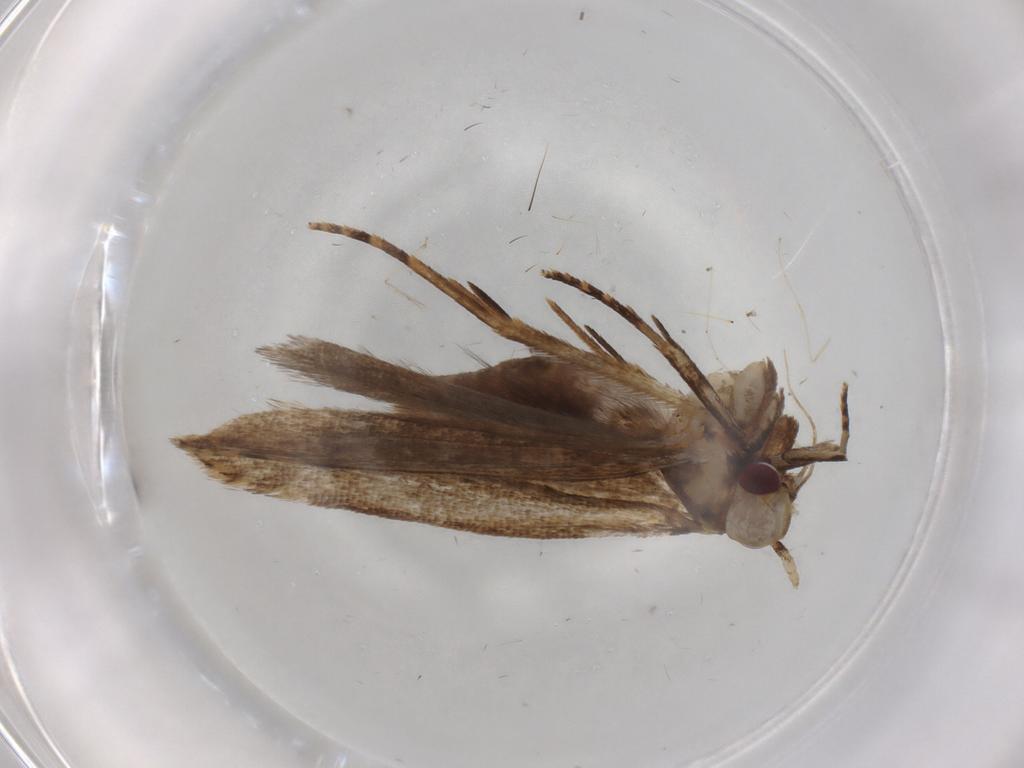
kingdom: Animalia
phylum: Arthropoda
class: Insecta
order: Lepidoptera
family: Gelechiidae
